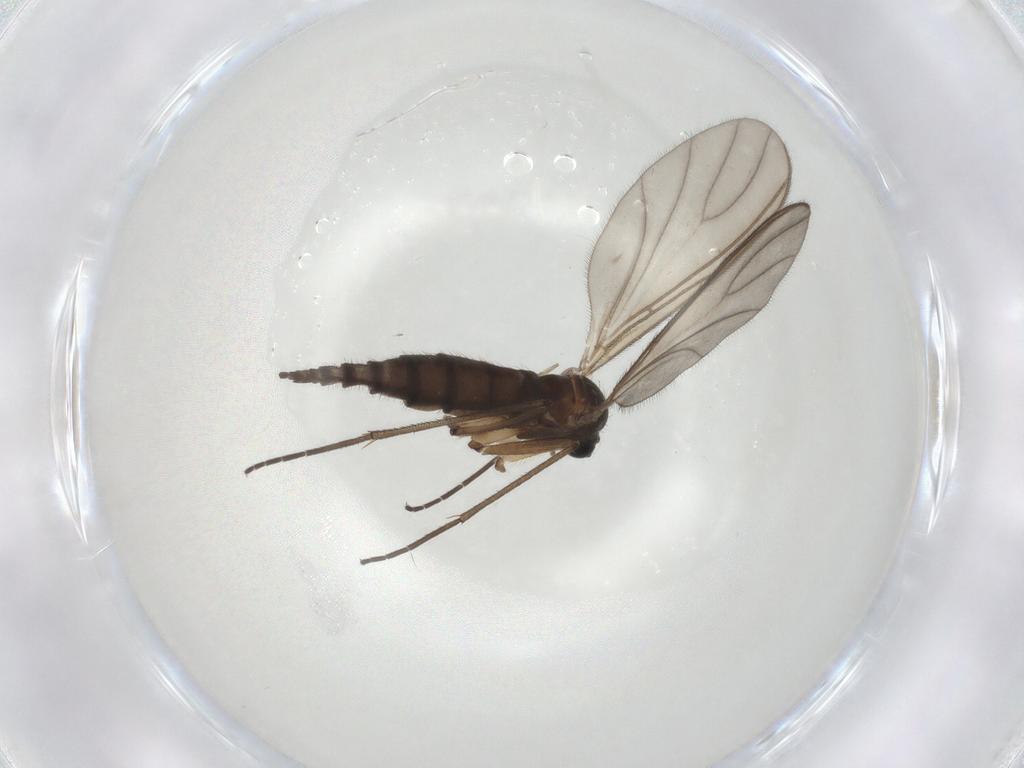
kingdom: Animalia
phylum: Arthropoda
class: Insecta
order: Diptera
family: Sciaridae
